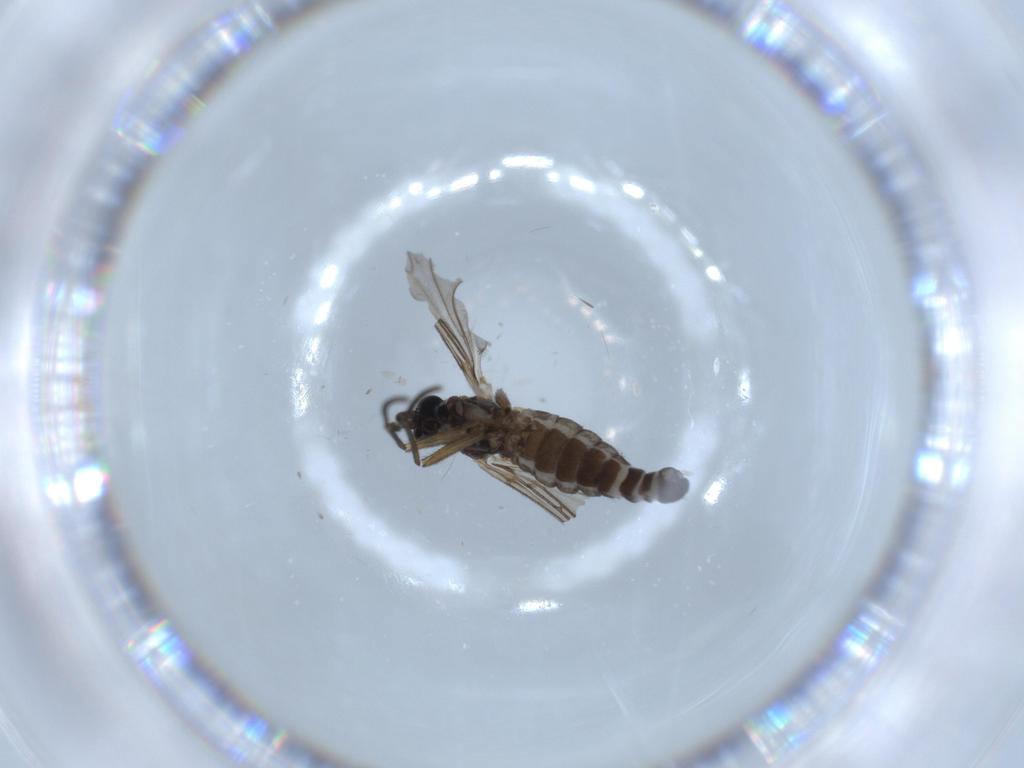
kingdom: Animalia
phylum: Arthropoda
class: Insecta
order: Diptera
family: Sciaridae
